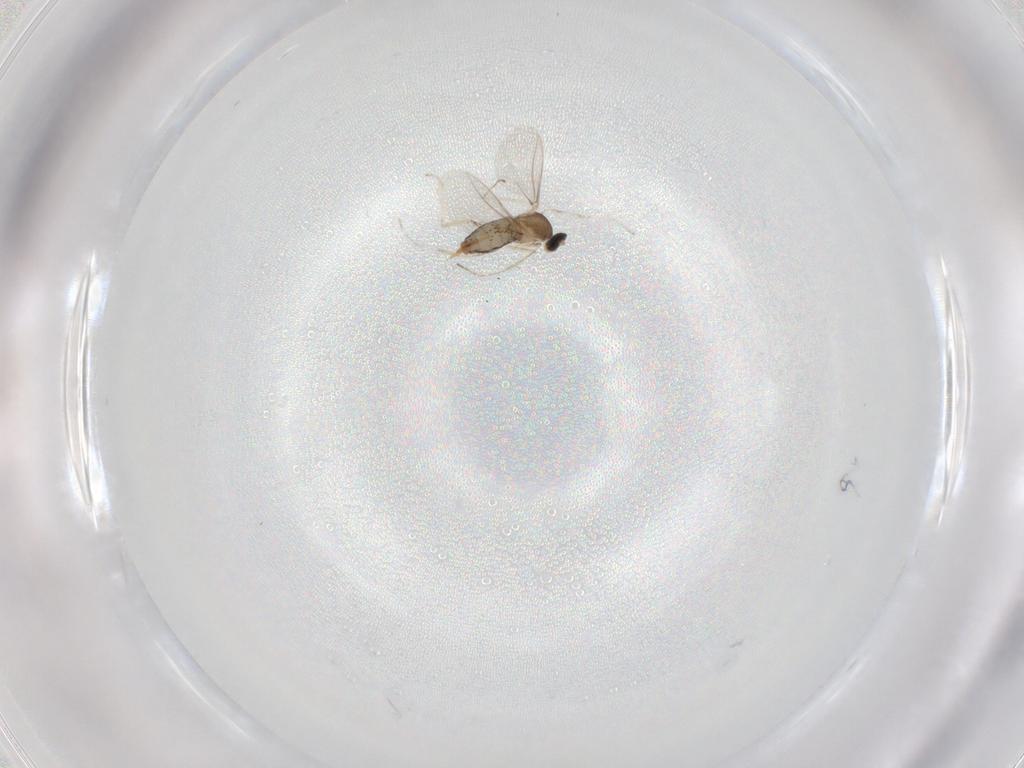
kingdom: Animalia
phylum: Arthropoda
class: Insecta
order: Diptera
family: Cecidomyiidae
